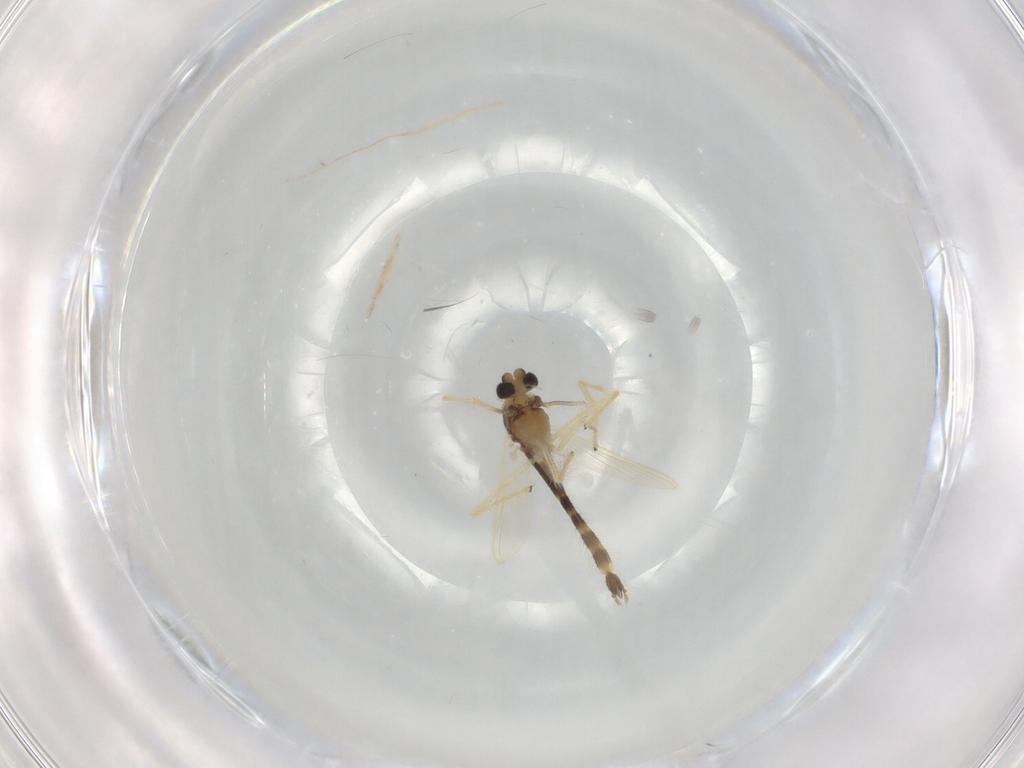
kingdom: Animalia
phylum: Arthropoda
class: Insecta
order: Diptera
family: Chironomidae
